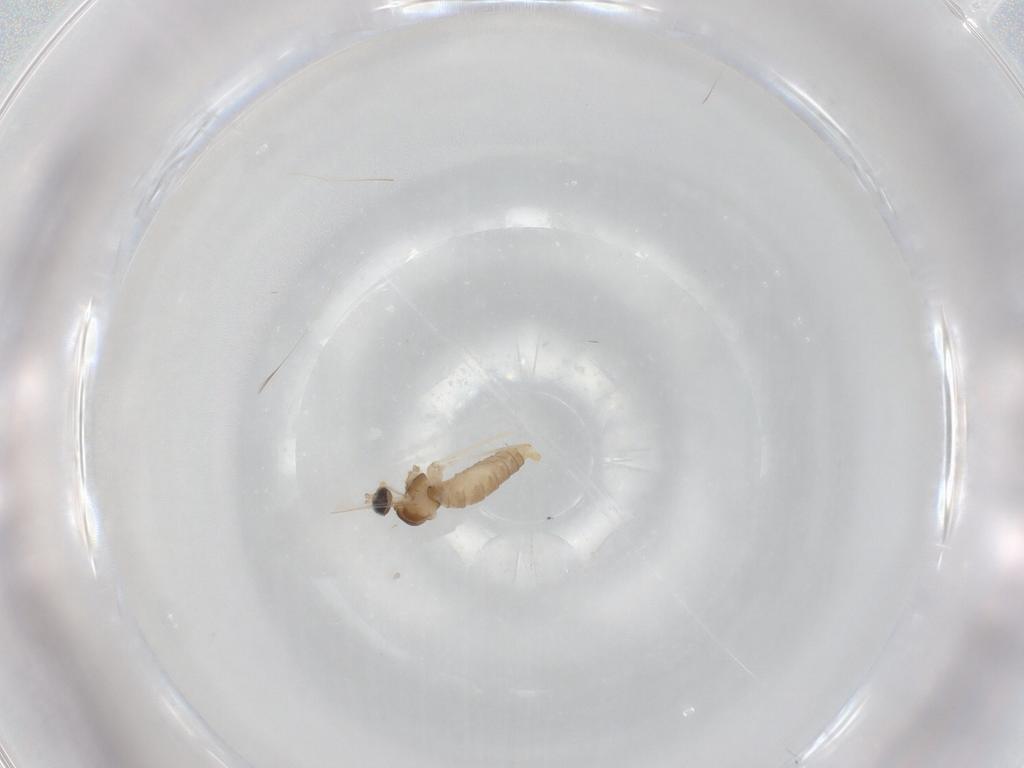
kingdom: Animalia
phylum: Arthropoda
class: Insecta
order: Diptera
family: Cecidomyiidae
